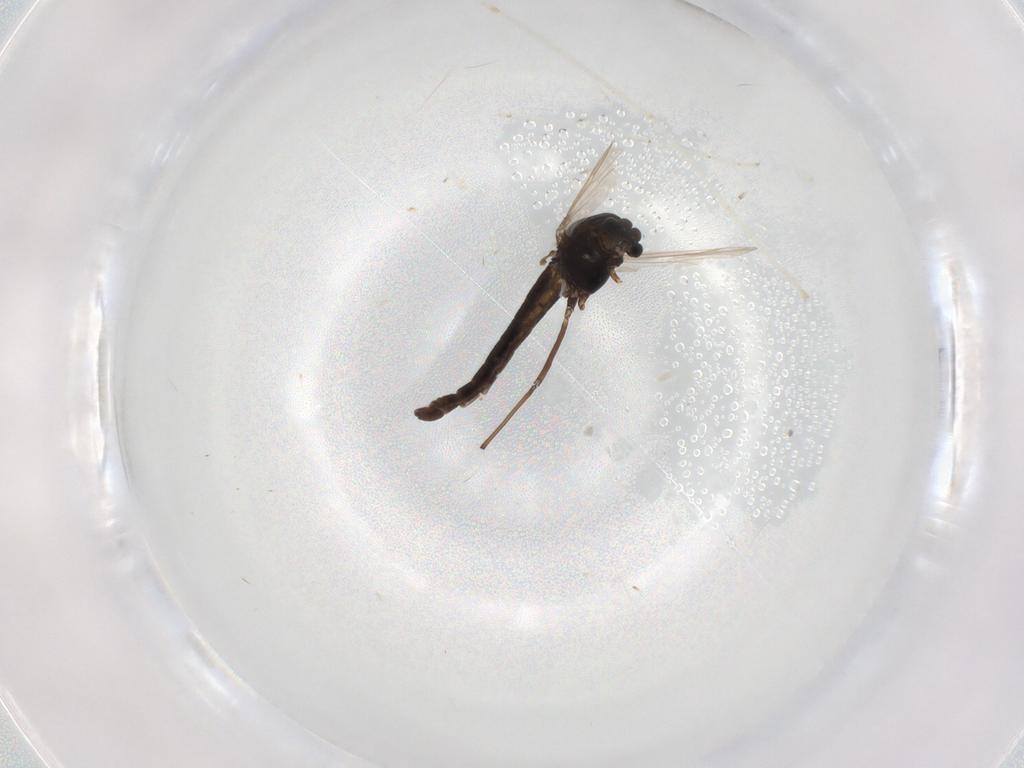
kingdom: Animalia
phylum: Arthropoda
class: Insecta
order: Diptera
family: Chironomidae
